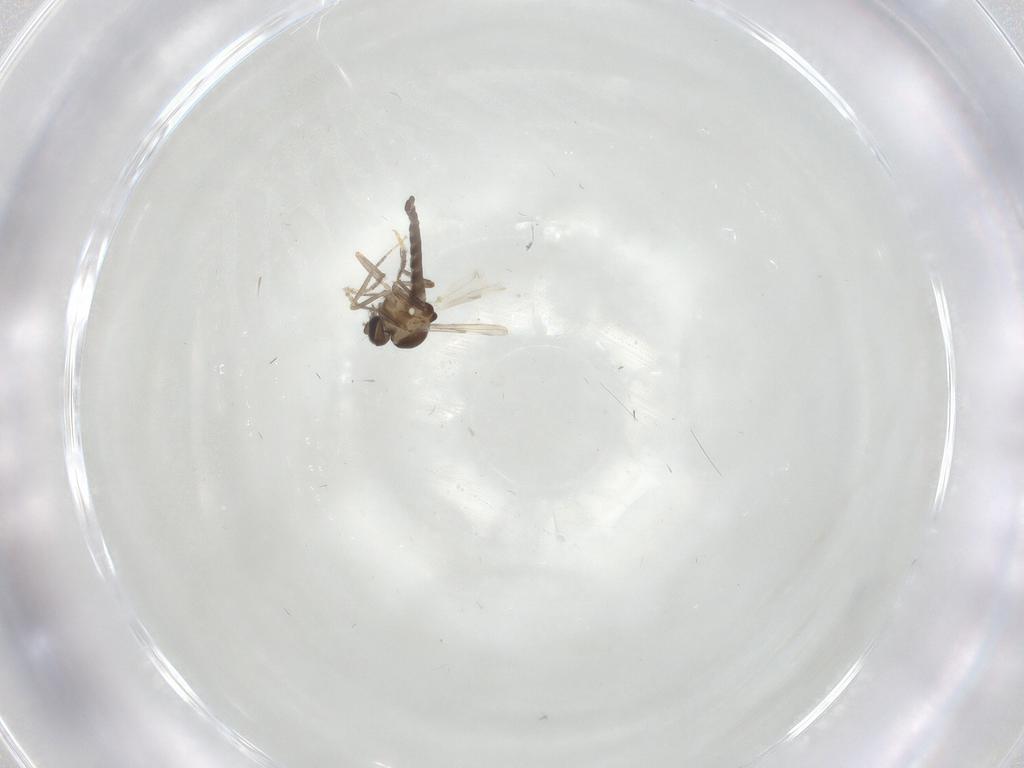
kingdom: Animalia
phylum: Arthropoda
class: Insecta
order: Diptera
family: Ceratopogonidae
